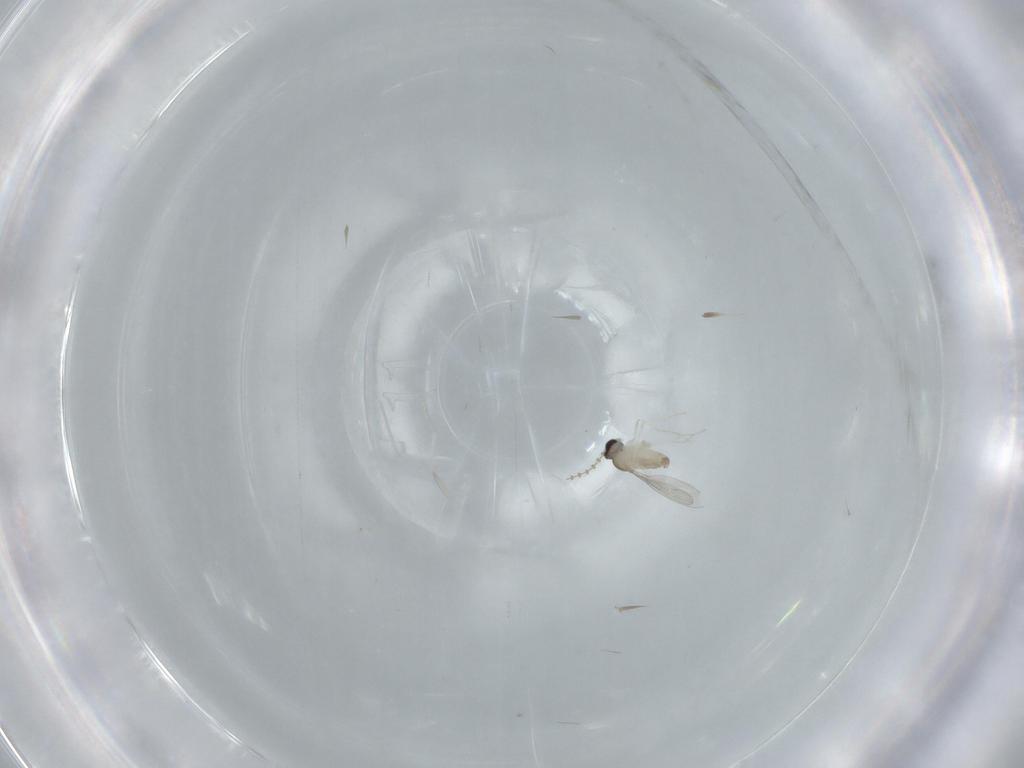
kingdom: Animalia
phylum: Arthropoda
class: Insecta
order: Diptera
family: Cecidomyiidae
